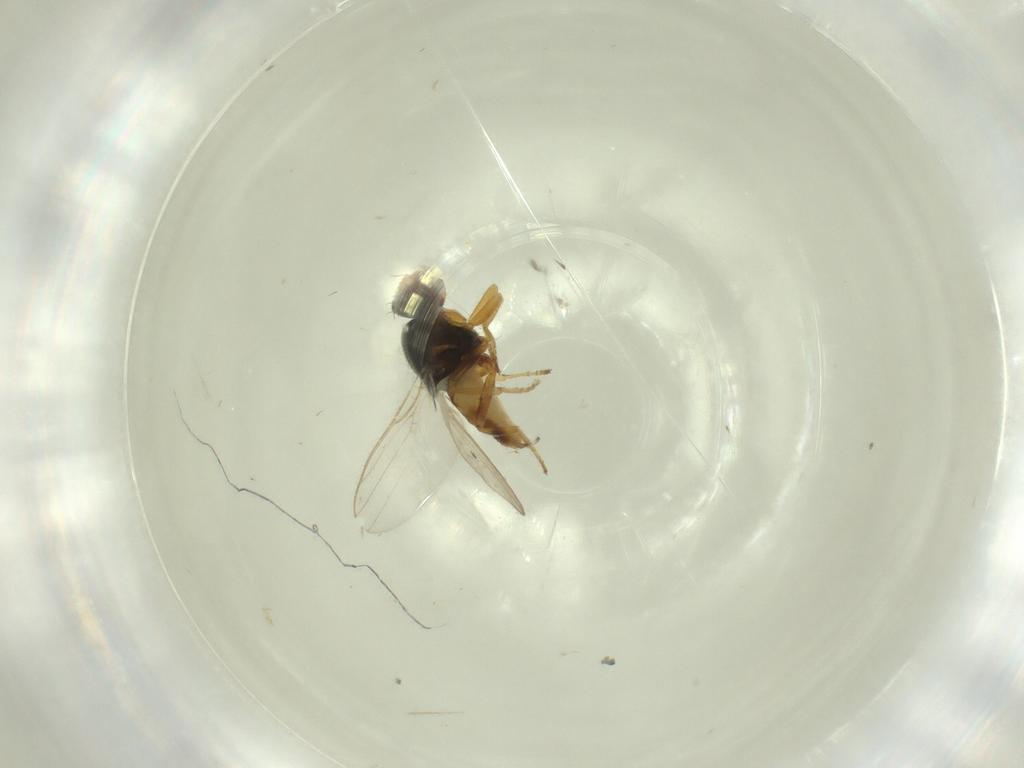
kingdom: Animalia
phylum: Arthropoda
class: Insecta
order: Diptera
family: Chloropidae
